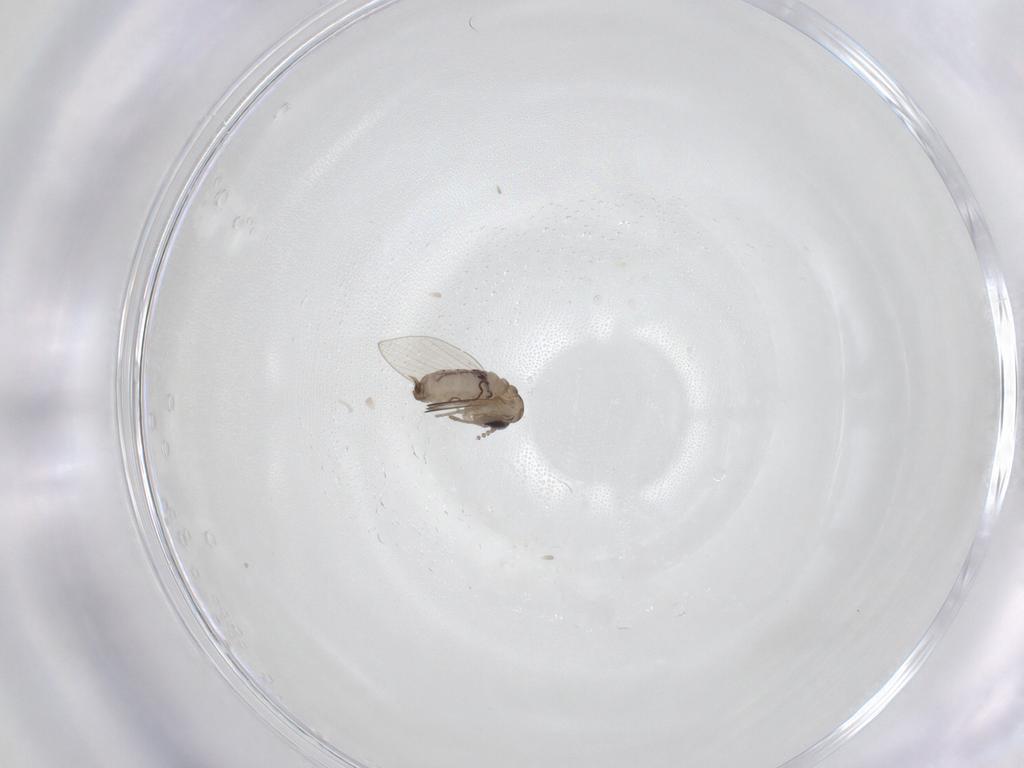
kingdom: Animalia
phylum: Arthropoda
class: Insecta
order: Diptera
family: Psychodidae
